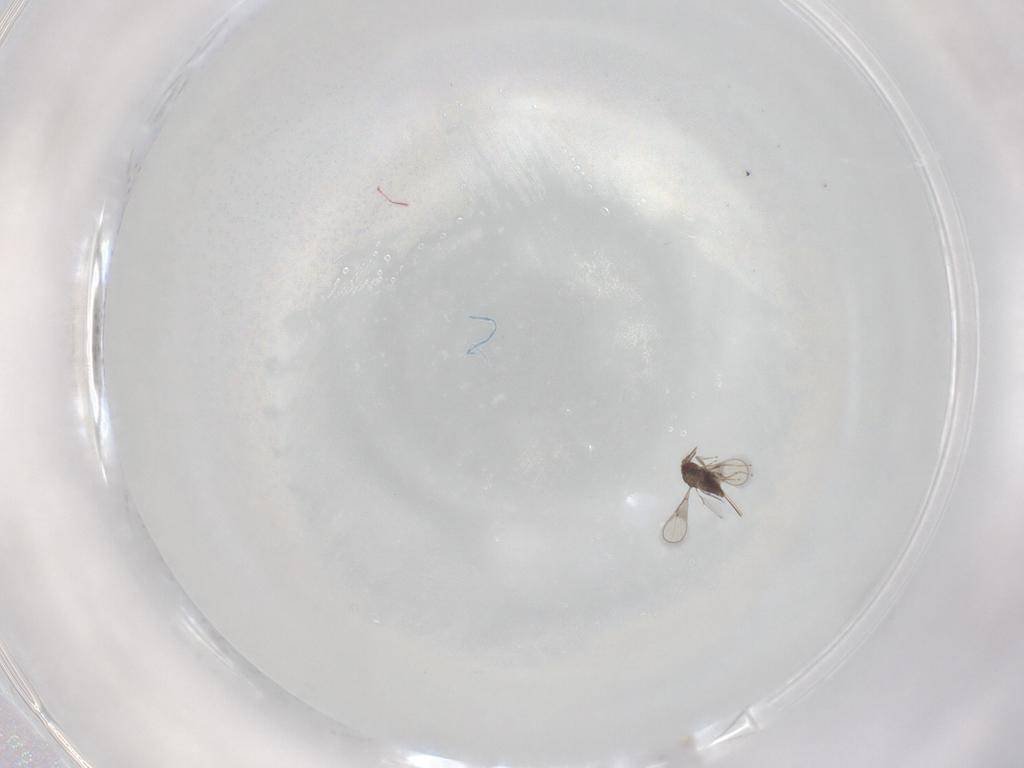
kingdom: Animalia
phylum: Arthropoda
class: Insecta
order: Hymenoptera
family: Trichogrammatidae
